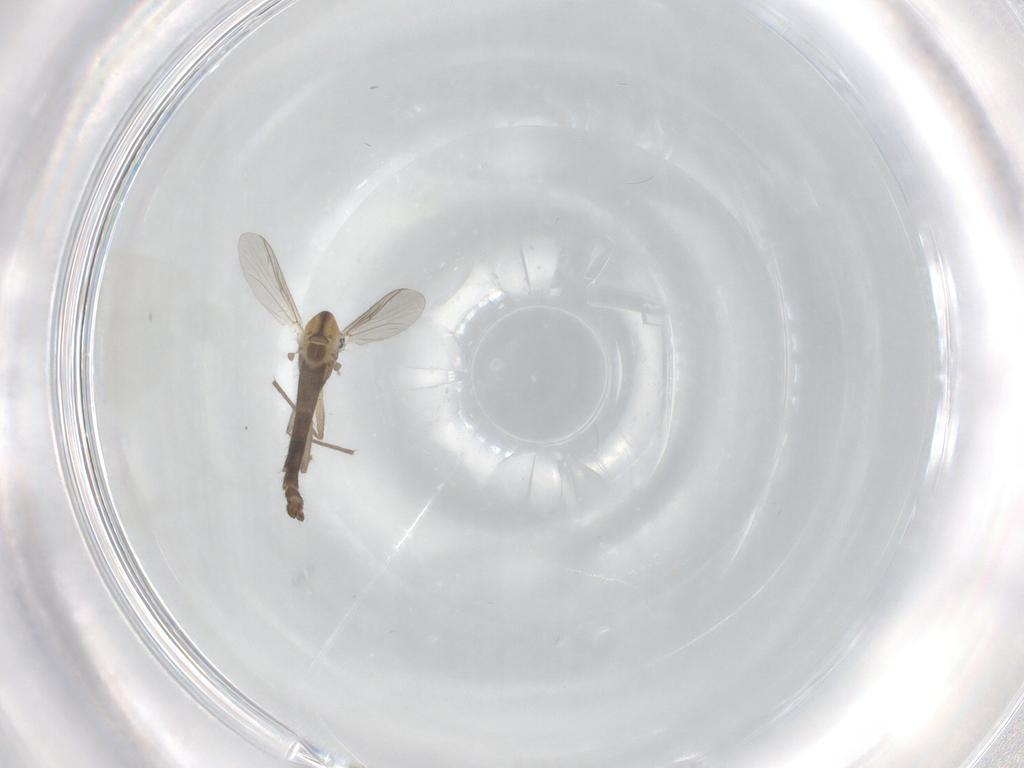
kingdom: Animalia
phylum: Arthropoda
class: Insecta
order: Diptera
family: Chironomidae
